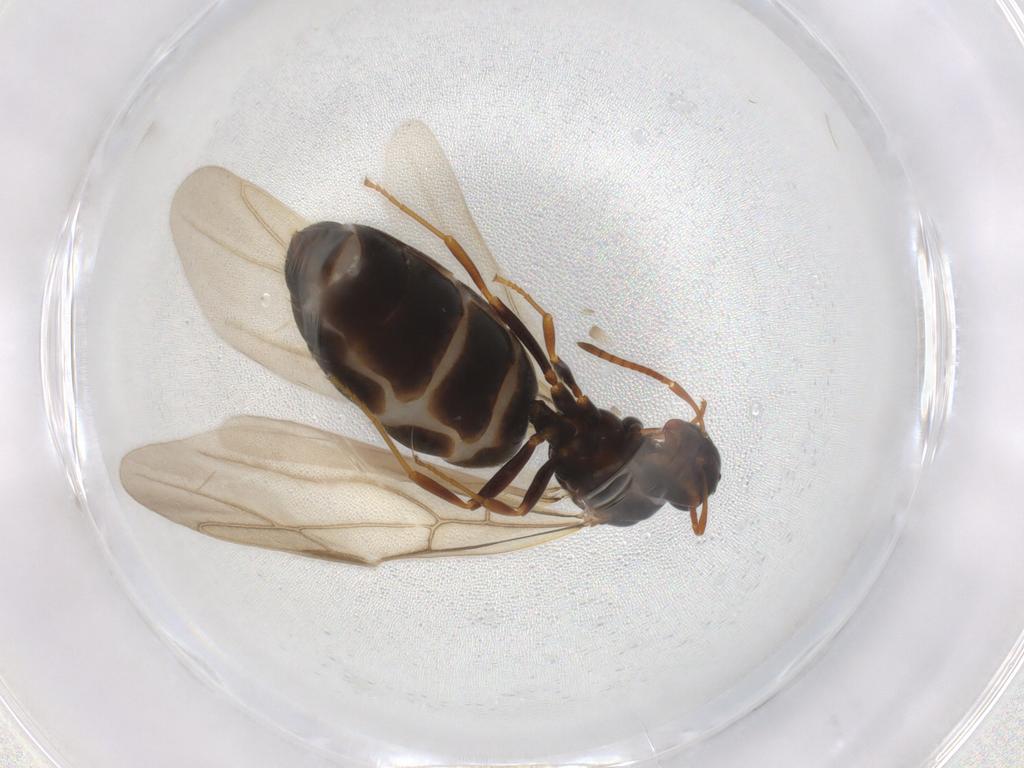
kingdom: Animalia
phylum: Arthropoda
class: Insecta
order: Hymenoptera
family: Formicidae
